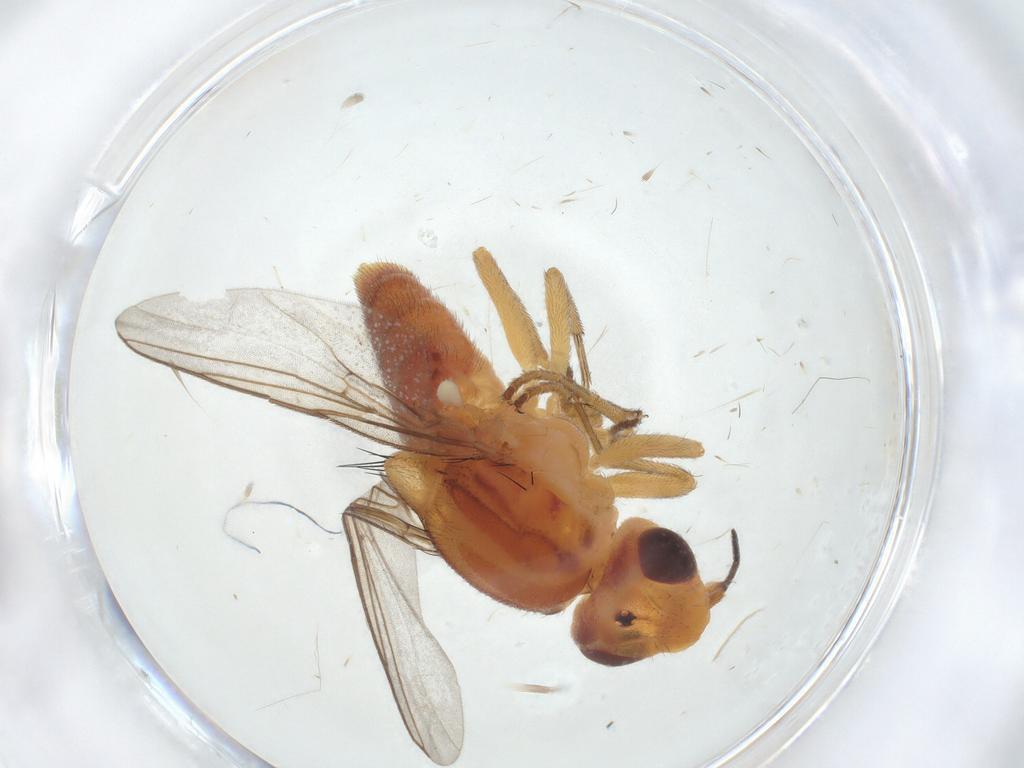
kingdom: Animalia
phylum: Arthropoda
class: Insecta
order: Diptera
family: Chloropidae
